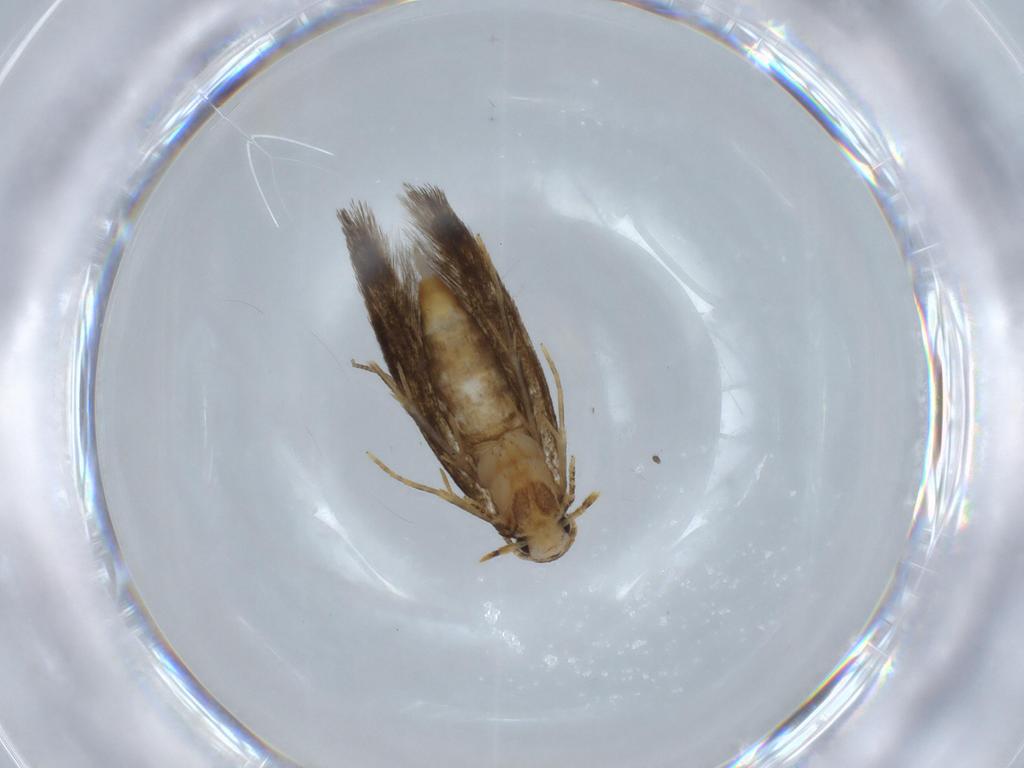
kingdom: Animalia
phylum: Arthropoda
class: Insecta
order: Lepidoptera
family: Tineidae
